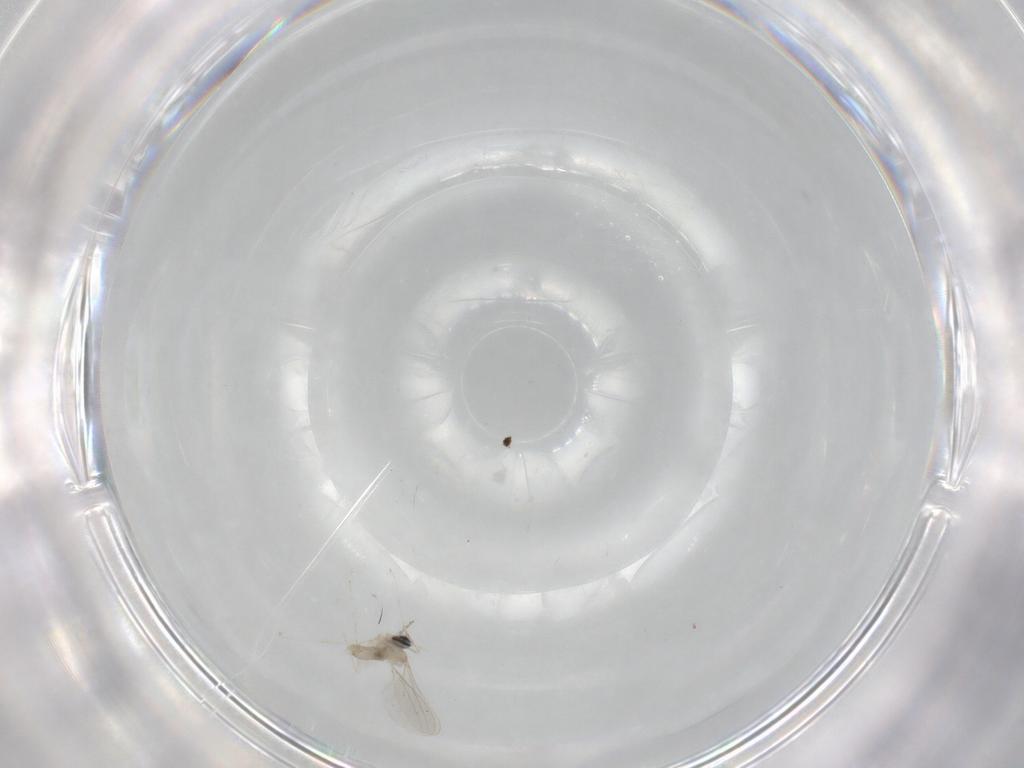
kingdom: Animalia
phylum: Arthropoda
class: Insecta
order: Diptera
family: Cecidomyiidae
